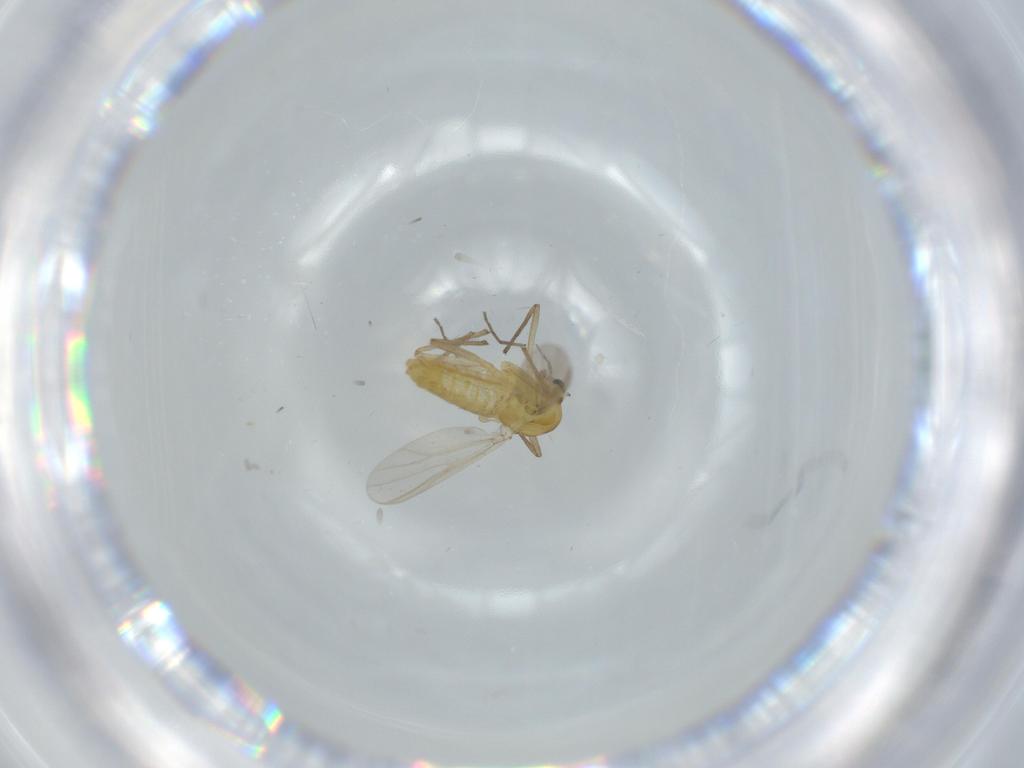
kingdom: Animalia
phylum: Arthropoda
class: Insecta
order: Diptera
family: Chironomidae
